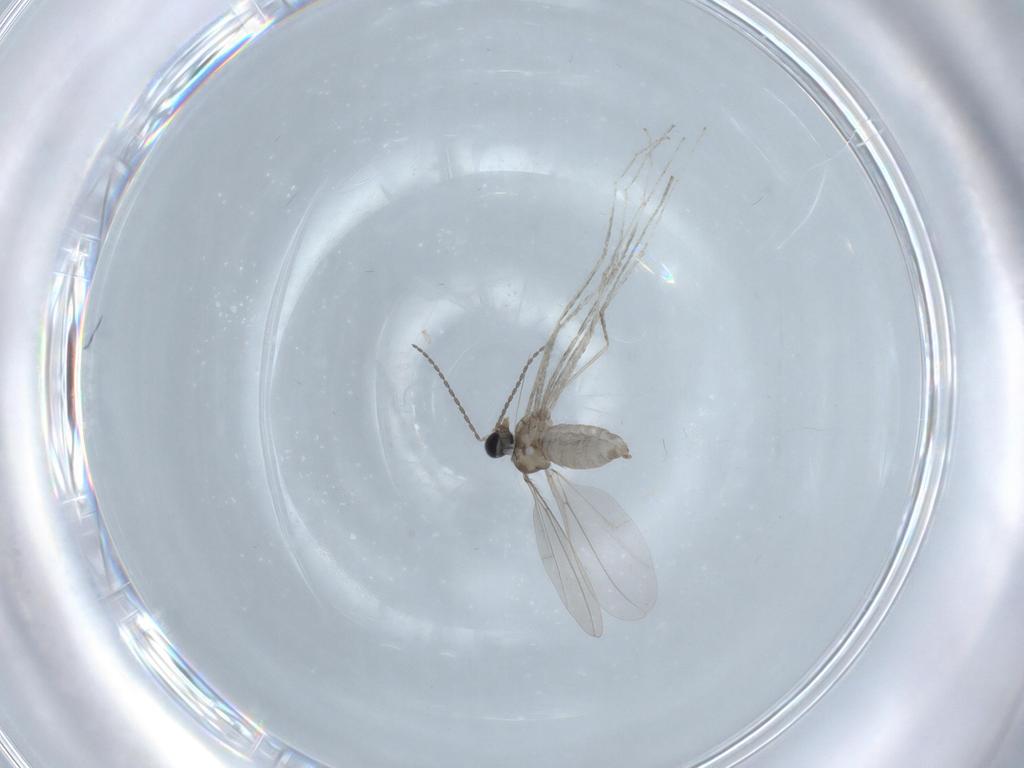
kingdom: Animalia
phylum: Arthropoda
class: Insecta
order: Diptera
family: Cecidomyiidae
